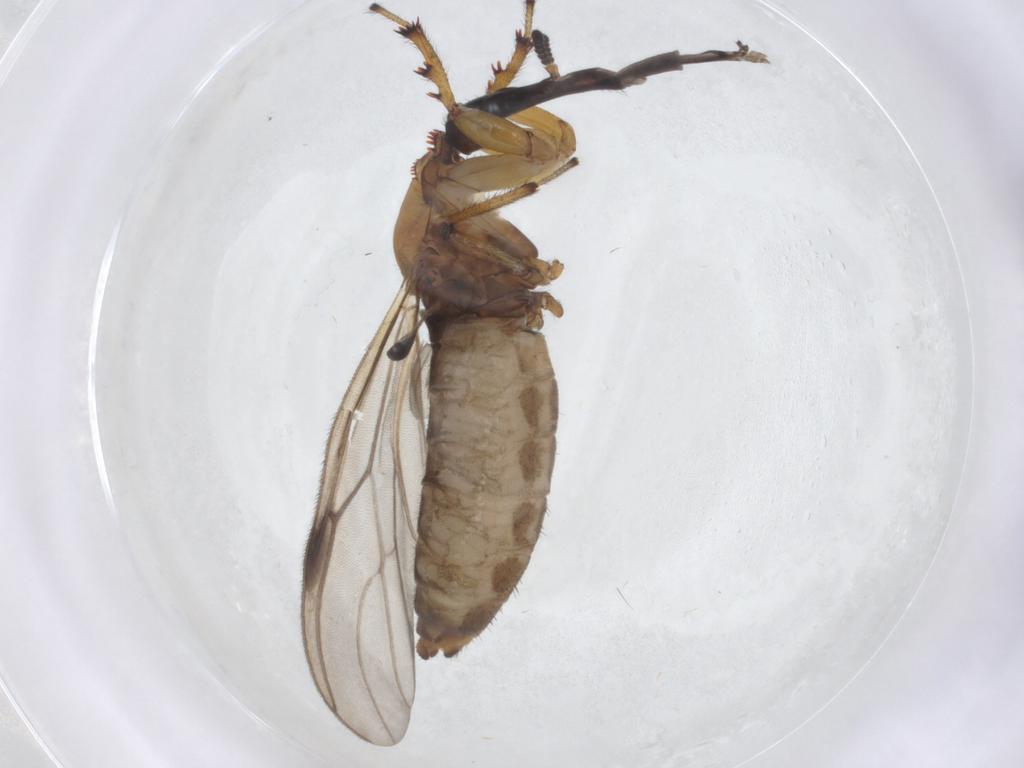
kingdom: Animalia
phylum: Arthropoda
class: Insecta
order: Diptera
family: Bibionidae
